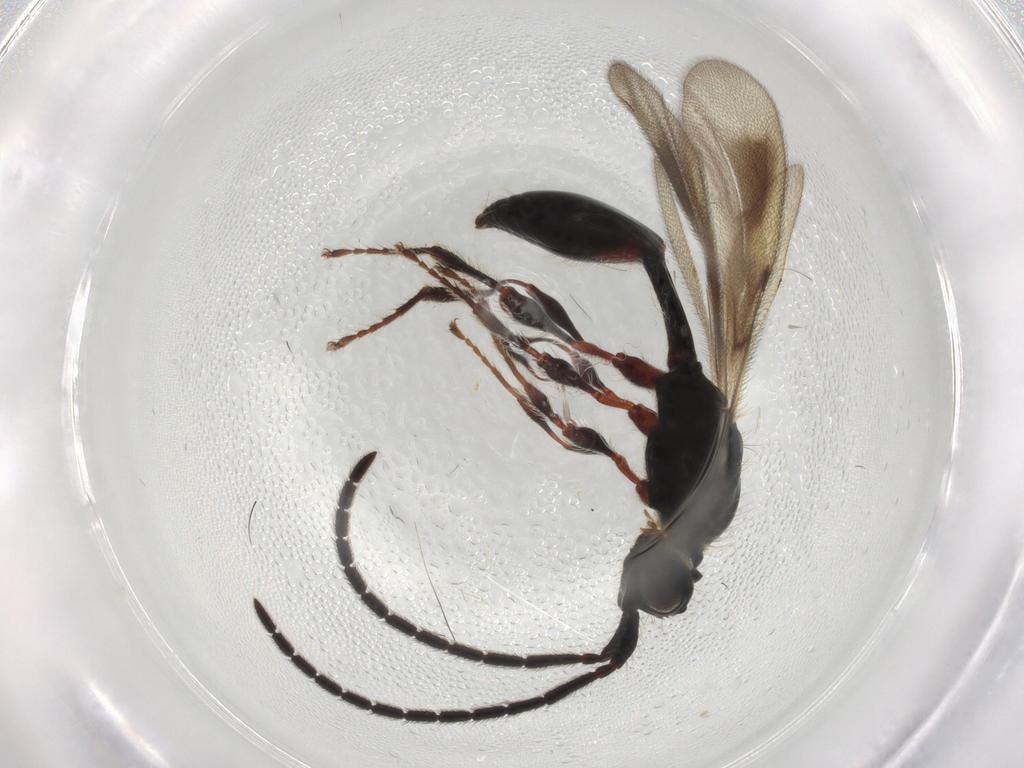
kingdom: Animalia
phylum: Arthropoda
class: Insecta
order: Hymenoptera
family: Diapriidae
